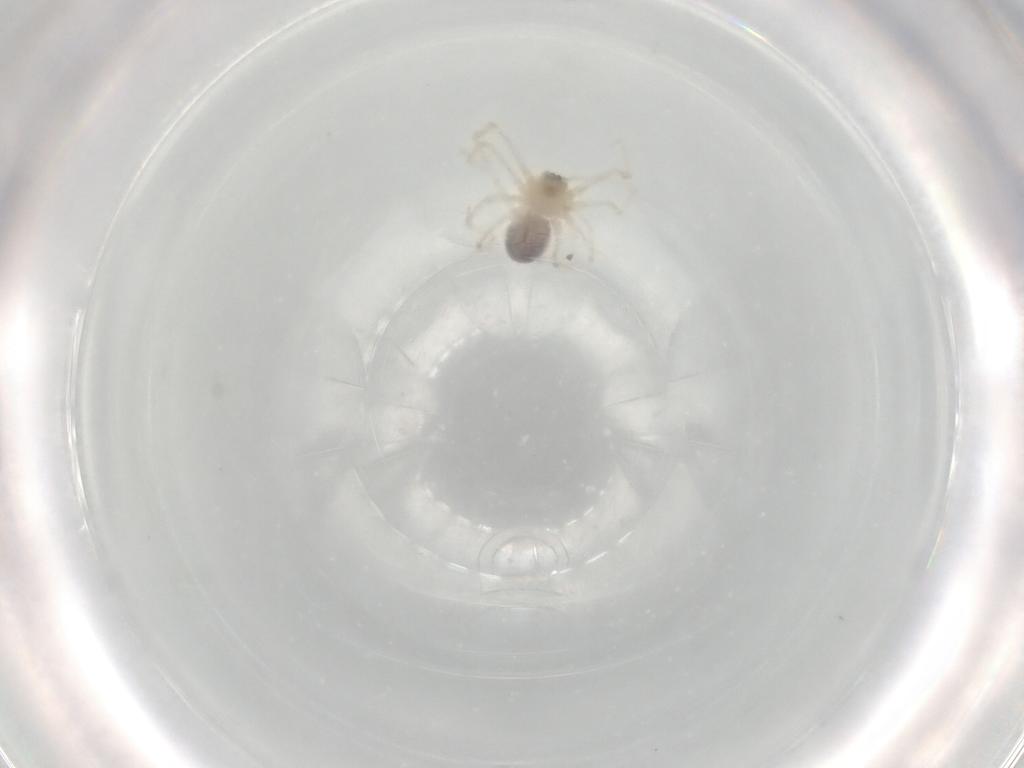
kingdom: Animalia
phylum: Arthropoda
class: Arachnida
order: Araneae
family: Pholcidae
